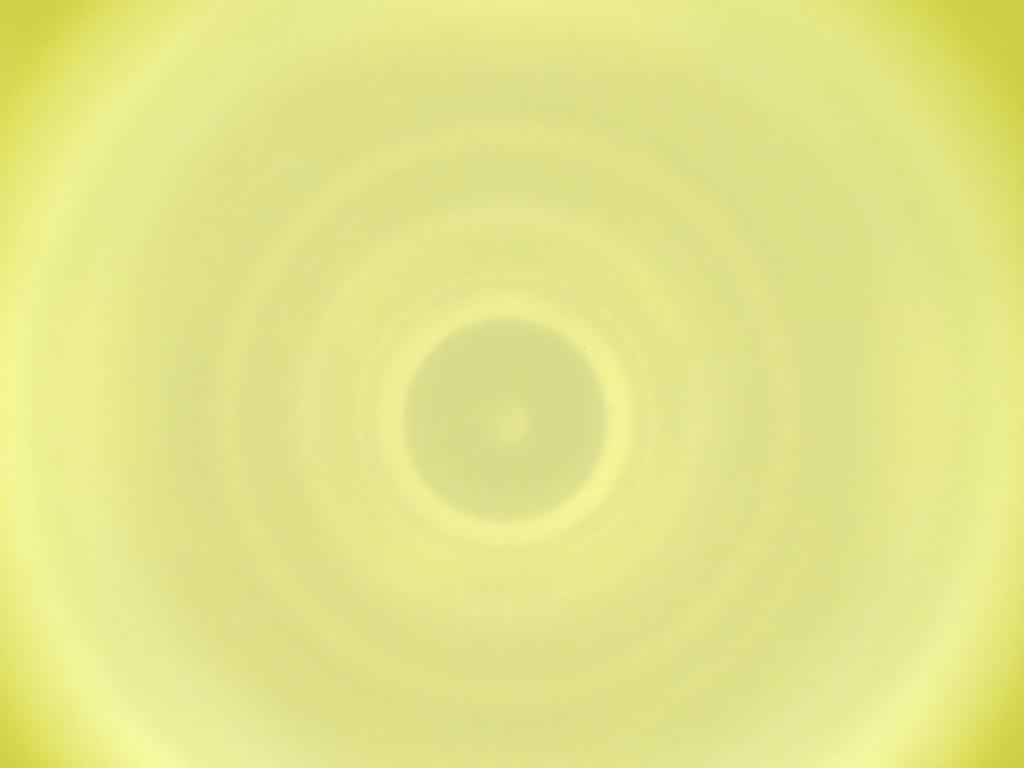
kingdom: Animalia
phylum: Arthropoda
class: Insecta
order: Diptera
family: Cecidomyiidae
